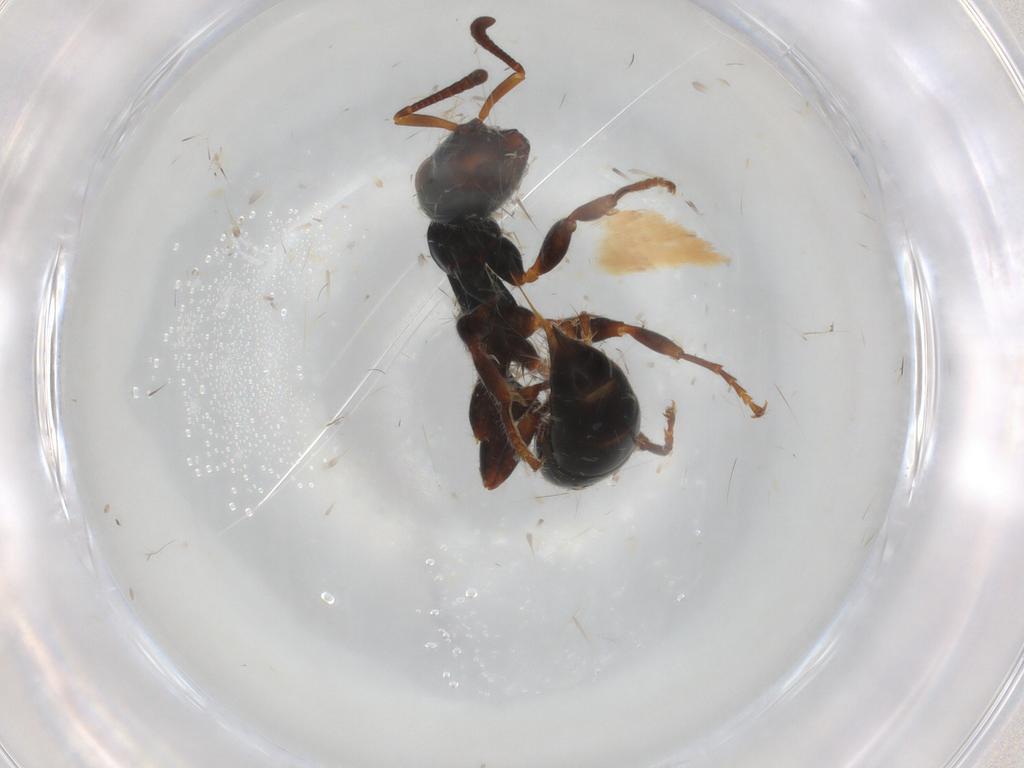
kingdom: Animalia
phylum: Arthropoda
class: Insecta
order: Hymenoptera
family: Formicidae
